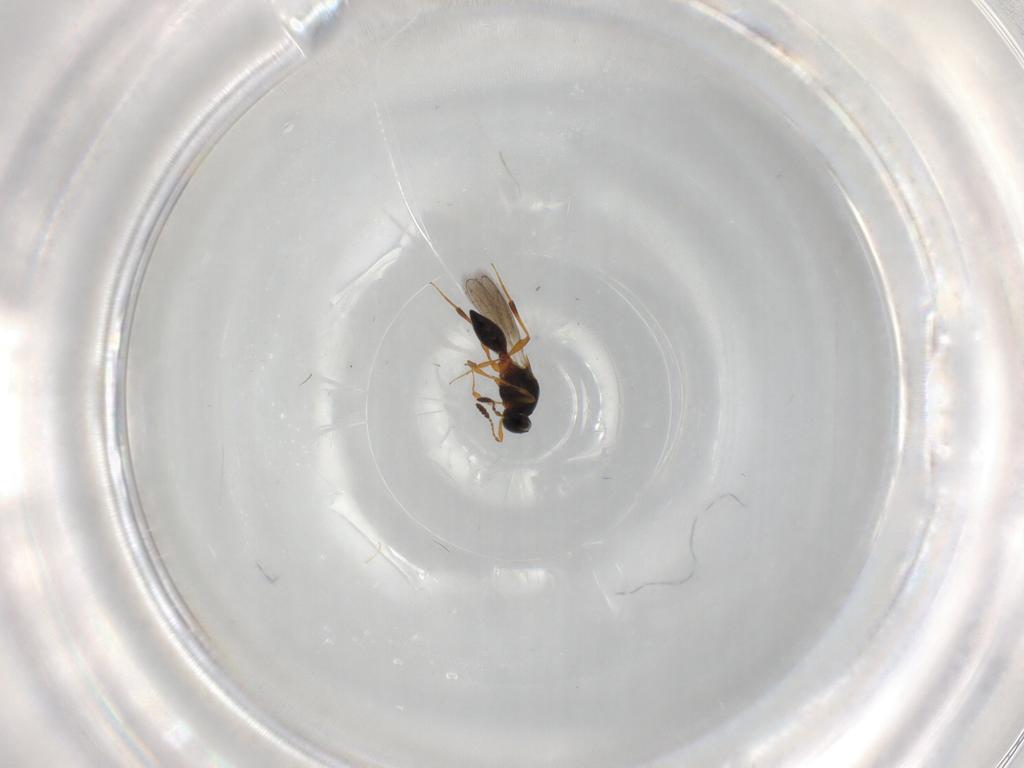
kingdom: Animalia
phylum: Arthropoda
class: Insecta
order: Hymenoptera
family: Platygastridae
